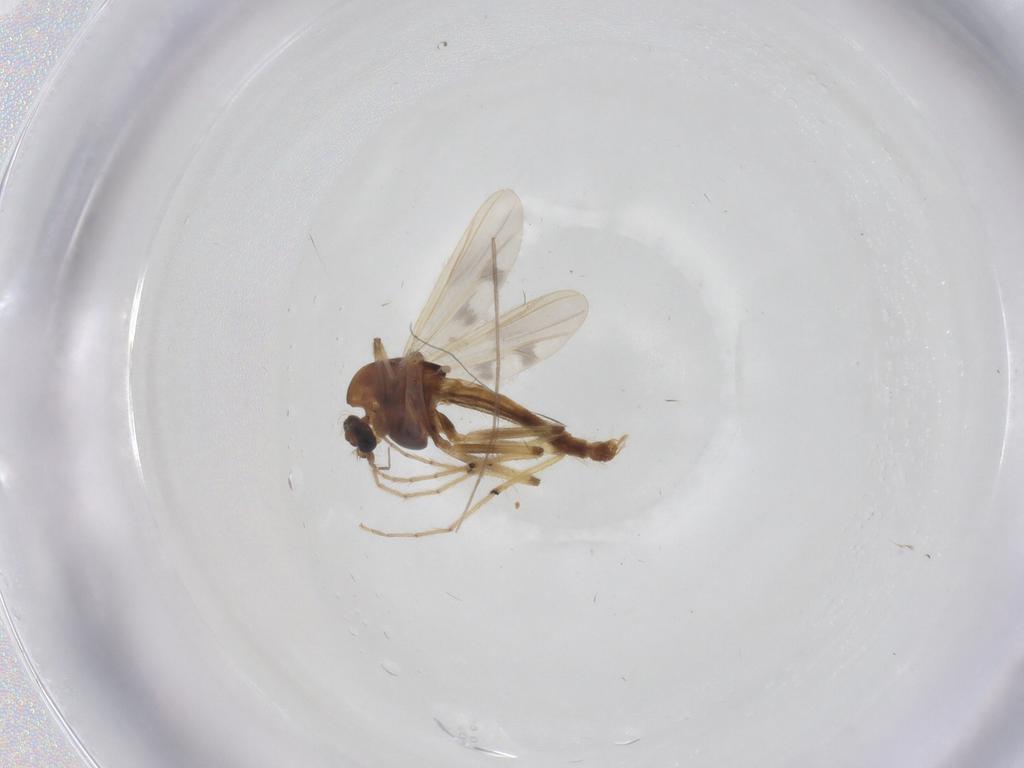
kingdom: Animalia
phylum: Arthropoda
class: Insecta
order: Diptera
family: Chironomidae
